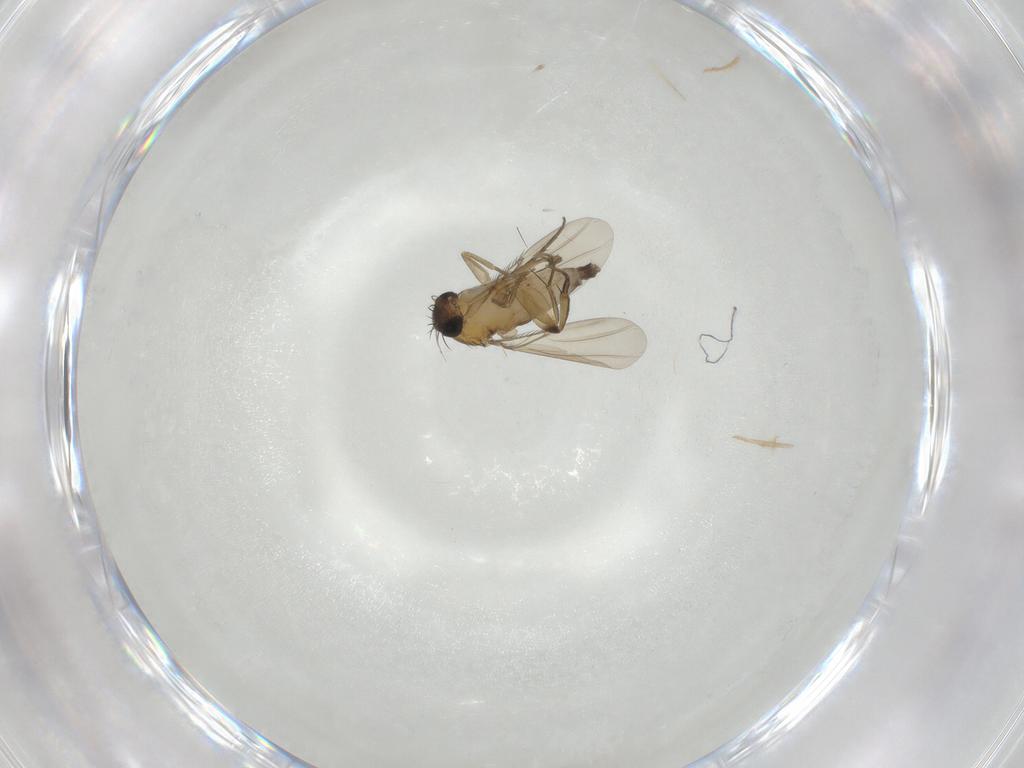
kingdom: Animalia
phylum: Arthropoda
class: Insecta
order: Diptera
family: Phoridae
